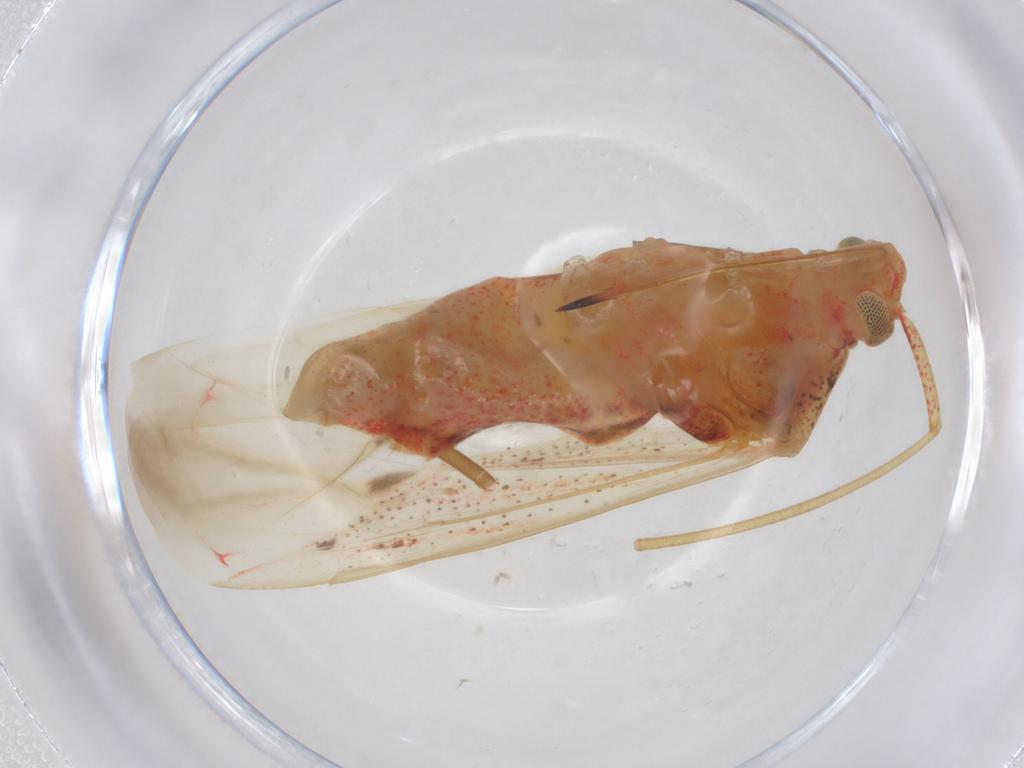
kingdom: Animalia
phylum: Arthropoda
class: Insecta
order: Hemiptera
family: Miridae
